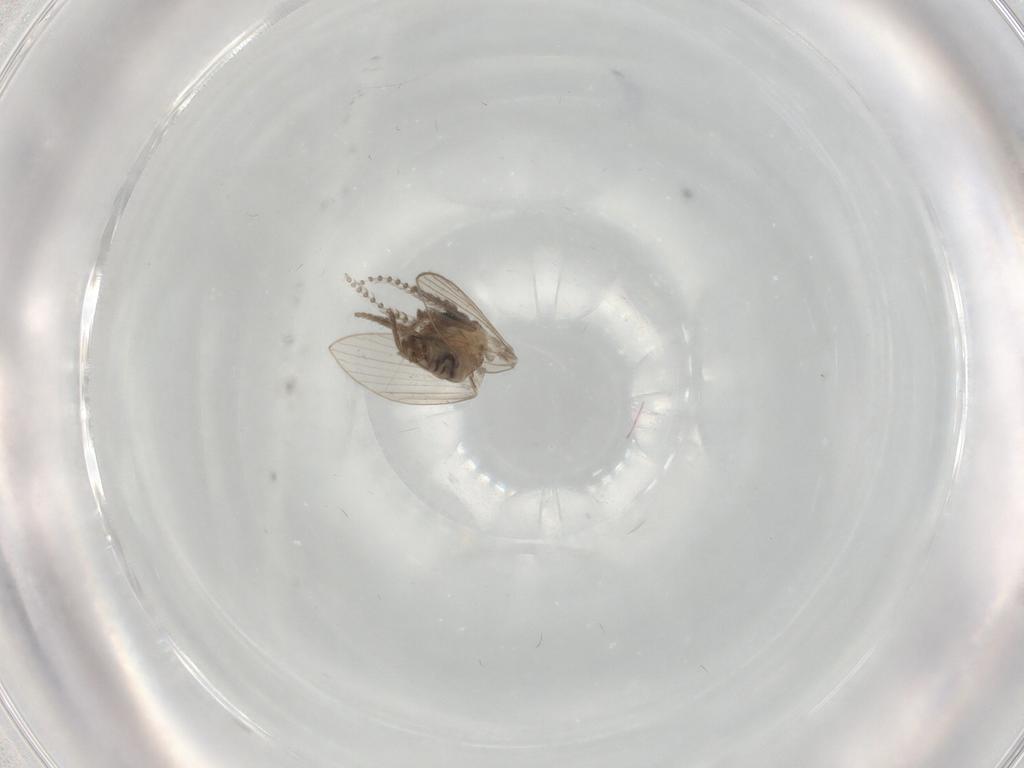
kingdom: Animalia
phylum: Arthropoda
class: Insecta
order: Diptera
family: Psychodidae
